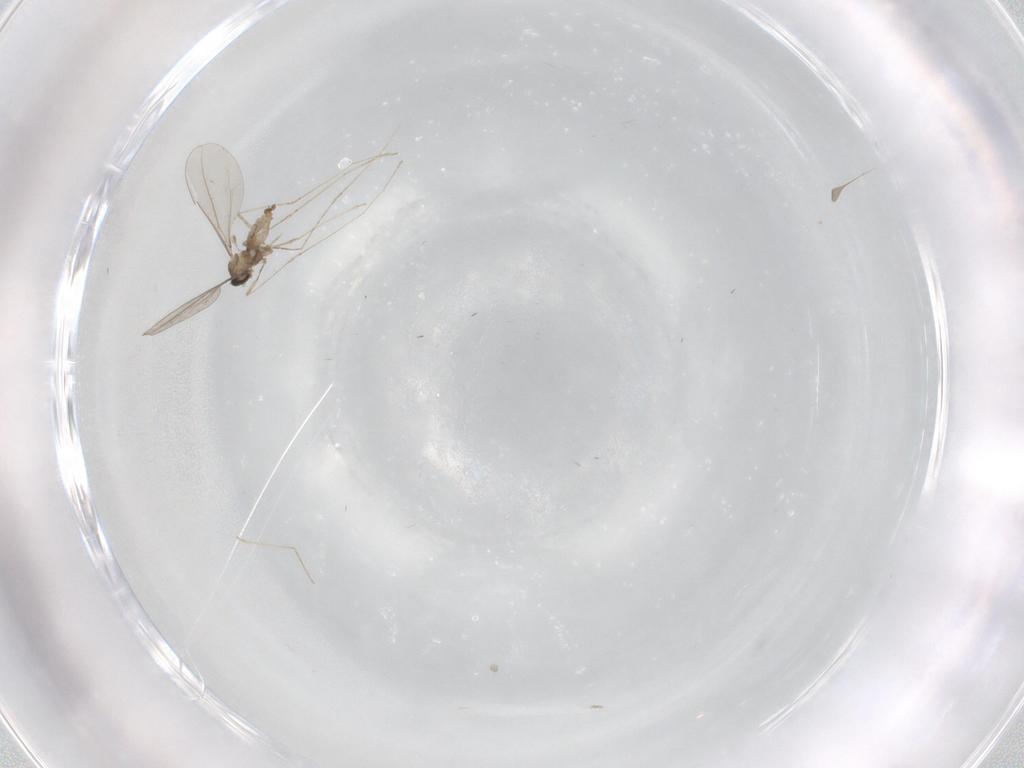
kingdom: Animalia
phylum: Arthropoda
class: Insecta
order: Diptera
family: Cecidomyiidae
